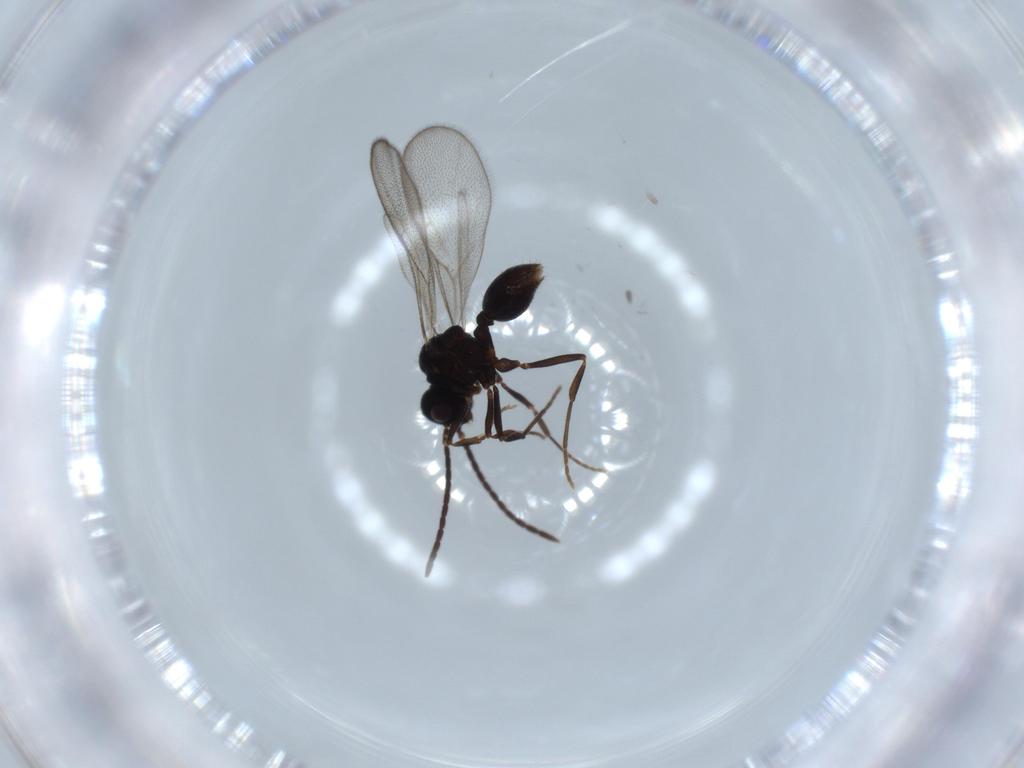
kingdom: Animalia
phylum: Arthropoda
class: Insecta
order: Hymenoptera
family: Formicidae
